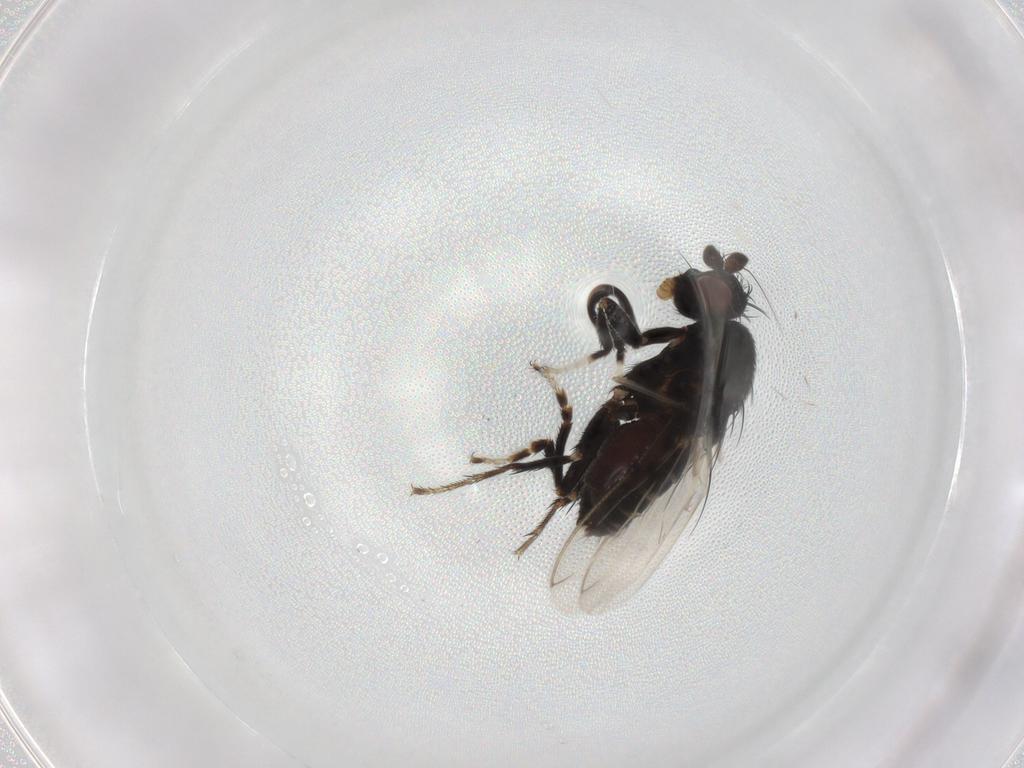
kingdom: Animalia
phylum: Arthropoda
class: Insecta
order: Diptera
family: Sphaeroceridae
